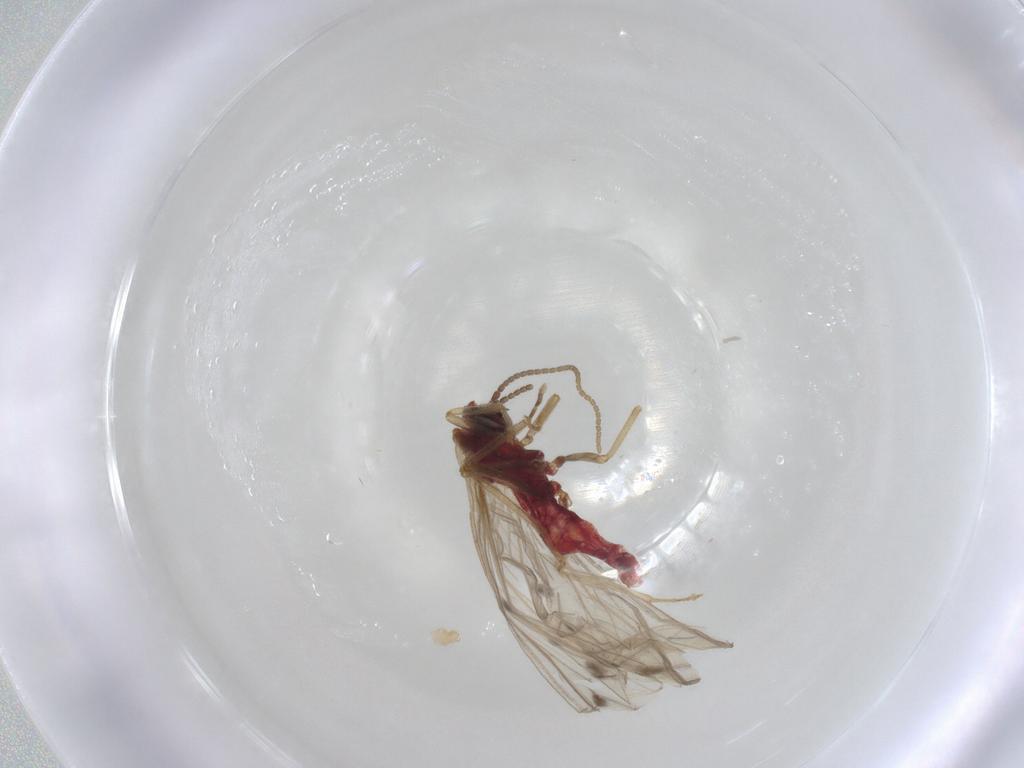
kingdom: Animalia
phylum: Arthropoda
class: Insecta
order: Neuroptera
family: Coniopterygidae
